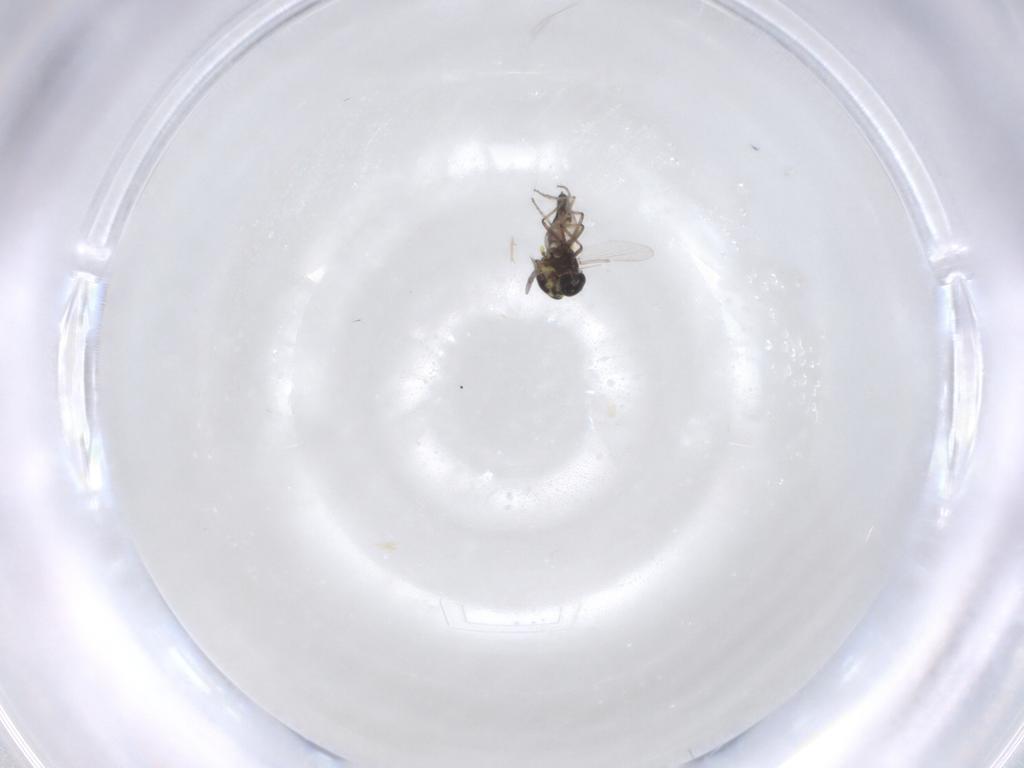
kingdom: Animalia
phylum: Arthropoda
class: Insecta
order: Diptera
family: Ceratopogonidae
